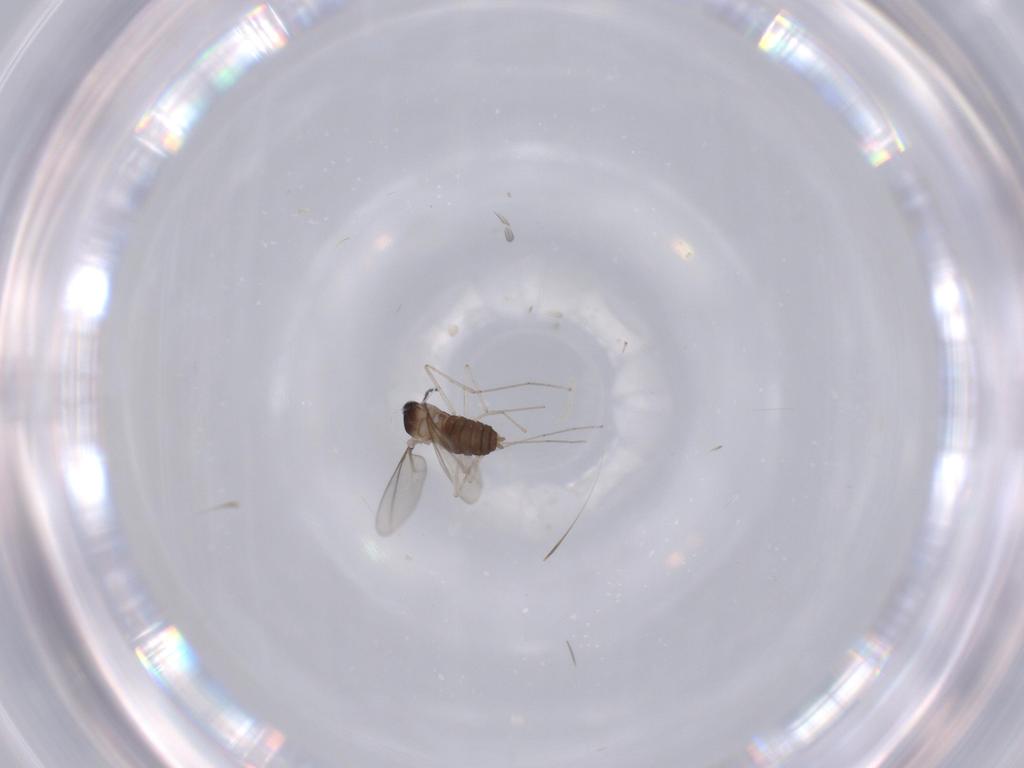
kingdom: Animalia
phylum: Arthropoda
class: Insecta
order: Diptera
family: Cecidomyiidae
